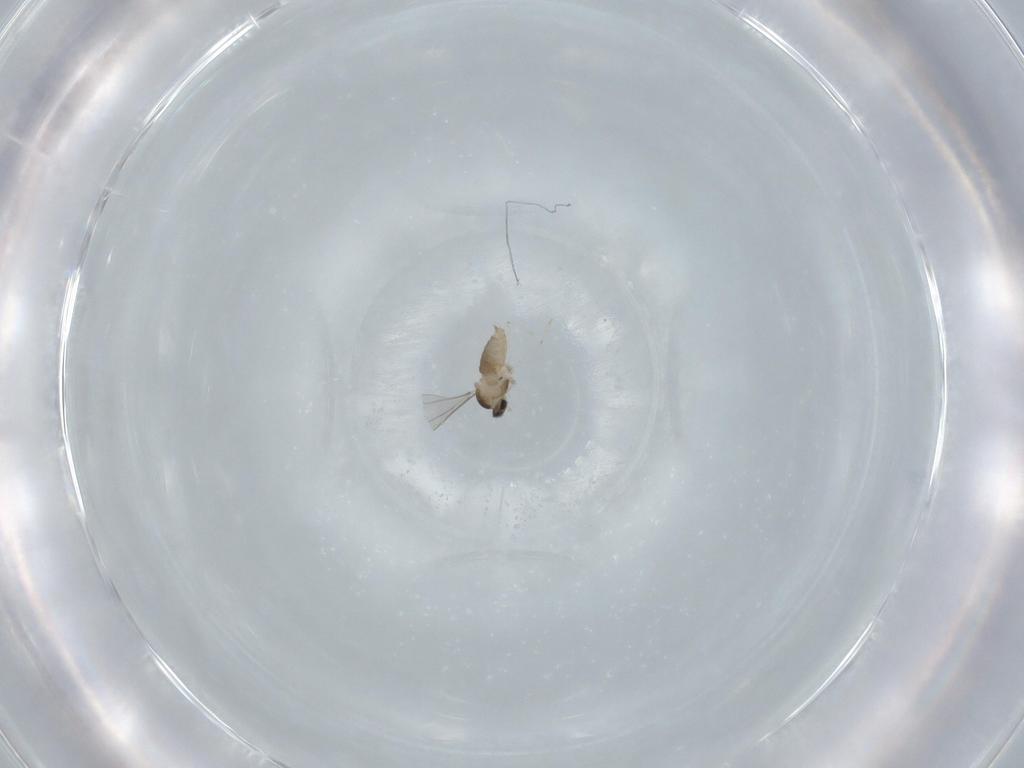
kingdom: Animalia
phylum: Arthropoda
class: Insecta
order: Diptera
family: Cecidomyiidae
